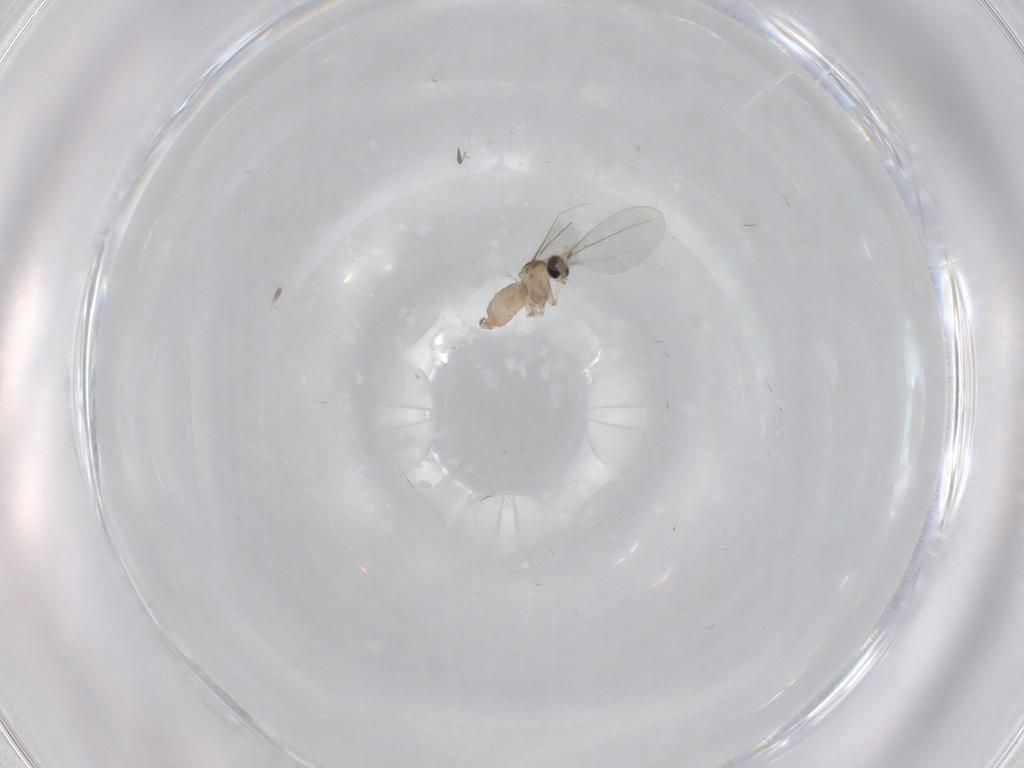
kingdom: Animalia
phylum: Arthropoda
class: Insecta
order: Diptera
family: Cecidomyiidae
